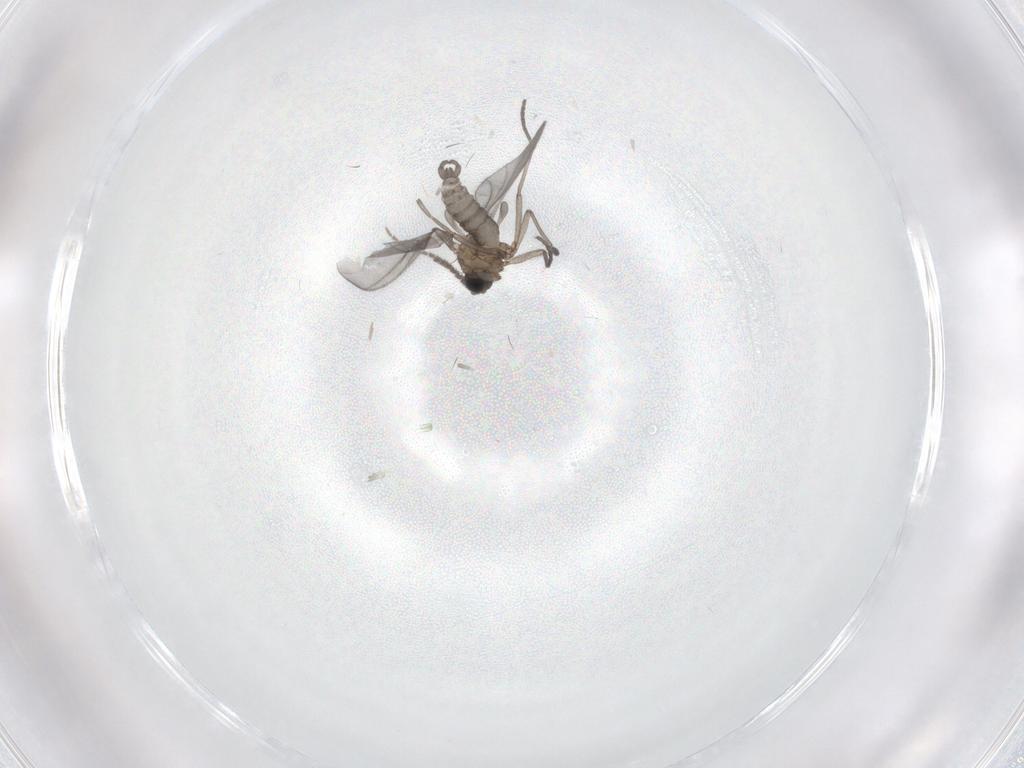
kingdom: Animalia
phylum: Arthropoda
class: Insecta
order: Diptera
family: Sciaridae
